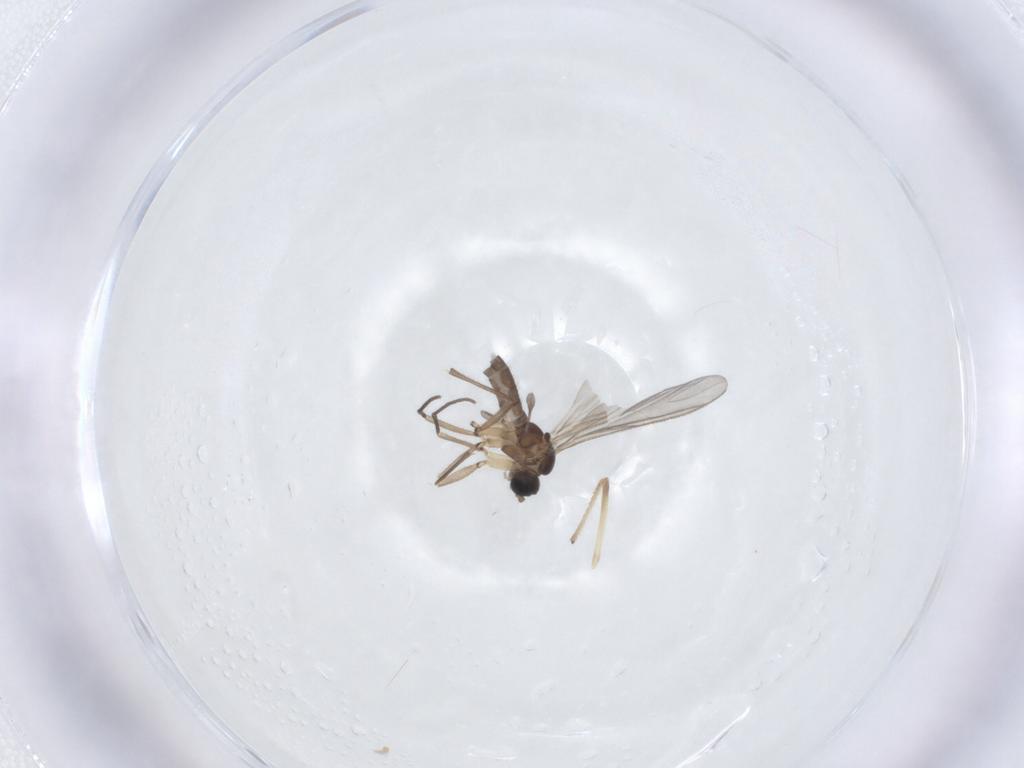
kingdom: Animalia
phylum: Arthropoda
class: Insecta
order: Diptera
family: Sciaridae
